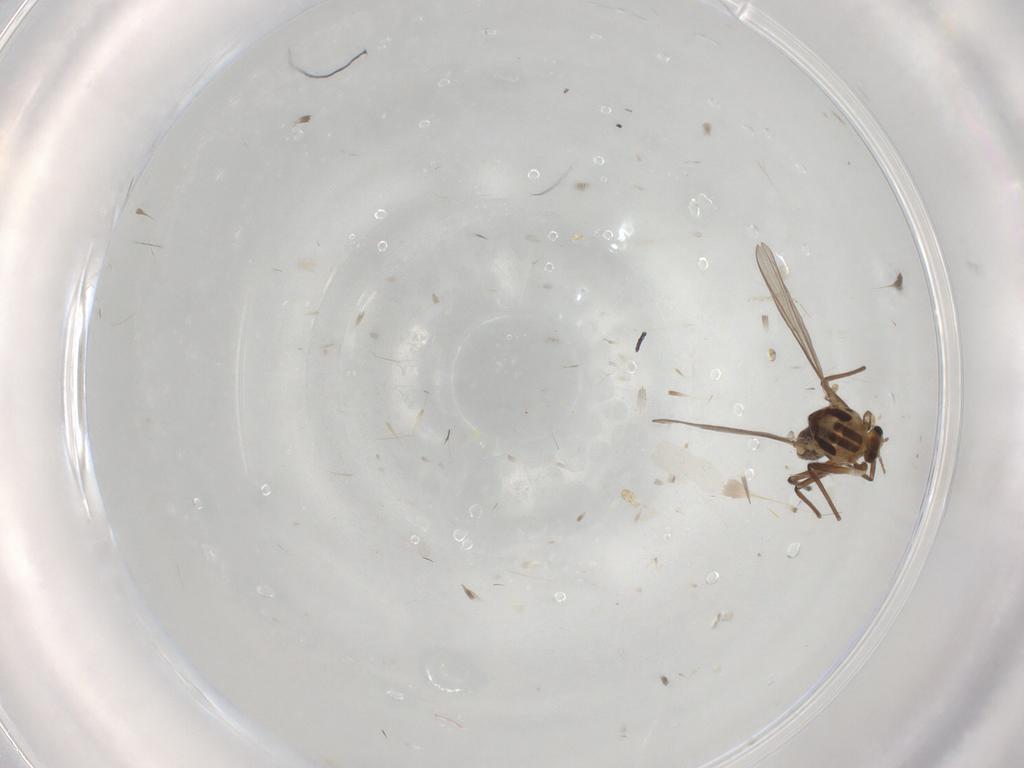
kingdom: Animalia
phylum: Arthropoda
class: Insecta
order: Diptera
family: Chironomidae
